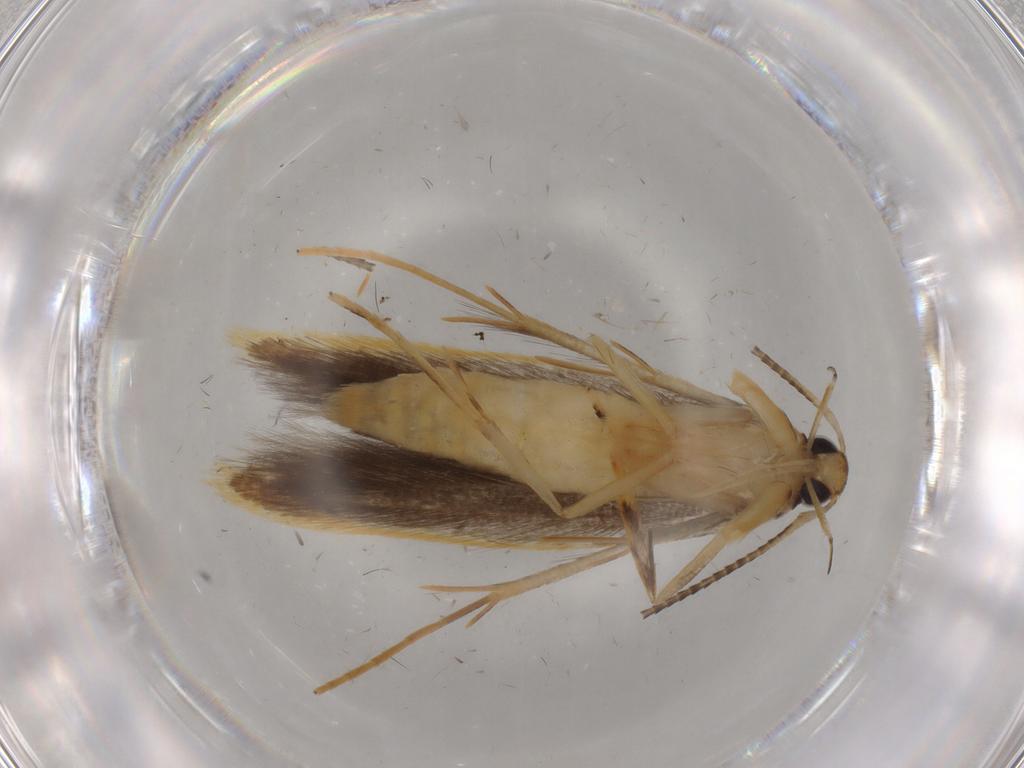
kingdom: Animalia
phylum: Arthropoda
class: Insecta
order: Lepidoptera
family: Pterolonchidae
